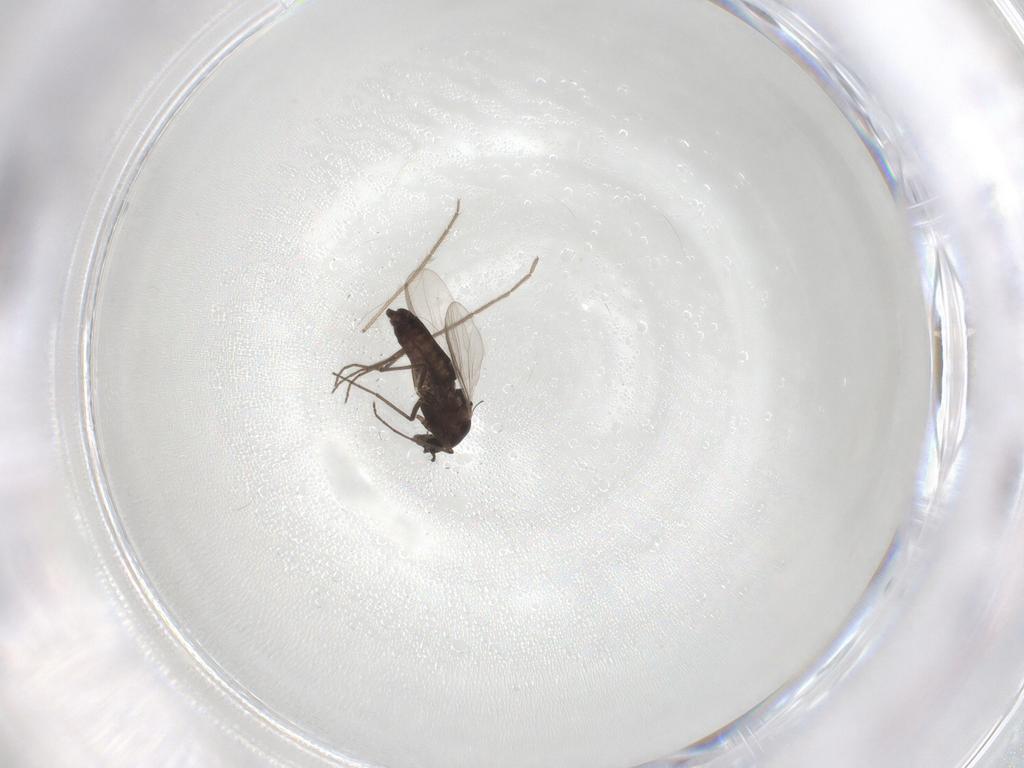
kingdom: Animalia
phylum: Arthropoda
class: Insecta
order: Diptera
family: Chironomidae
